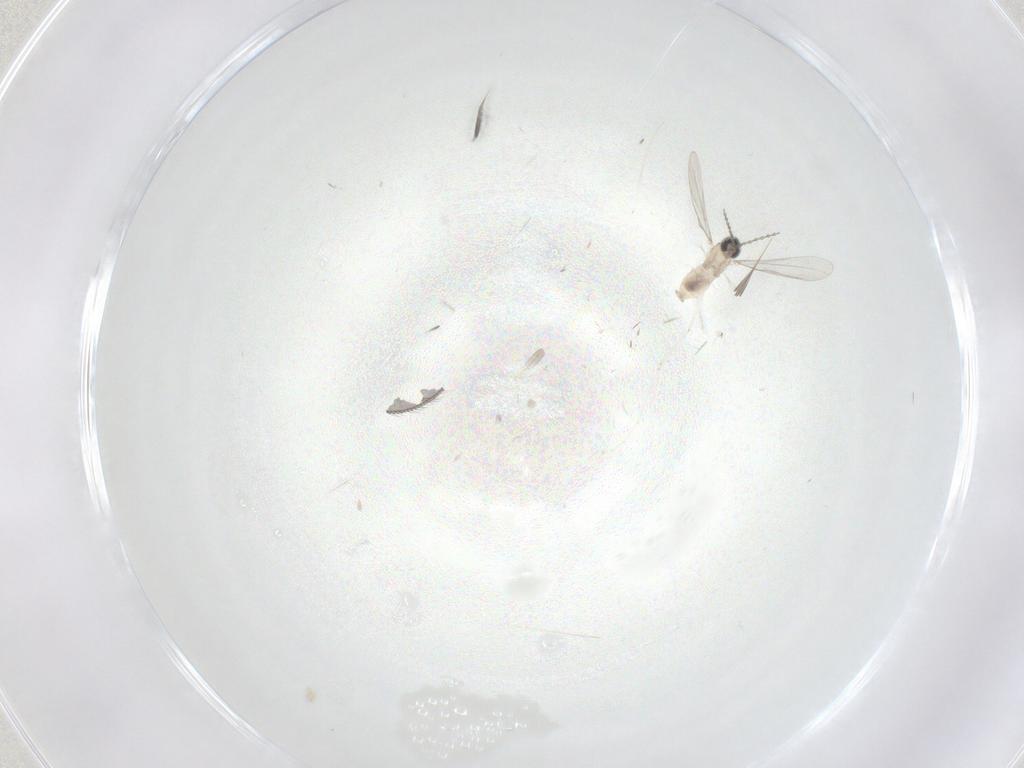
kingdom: Animalia
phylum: Arthropoda
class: Insecta
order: Diptera
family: Cecidomyiidae
